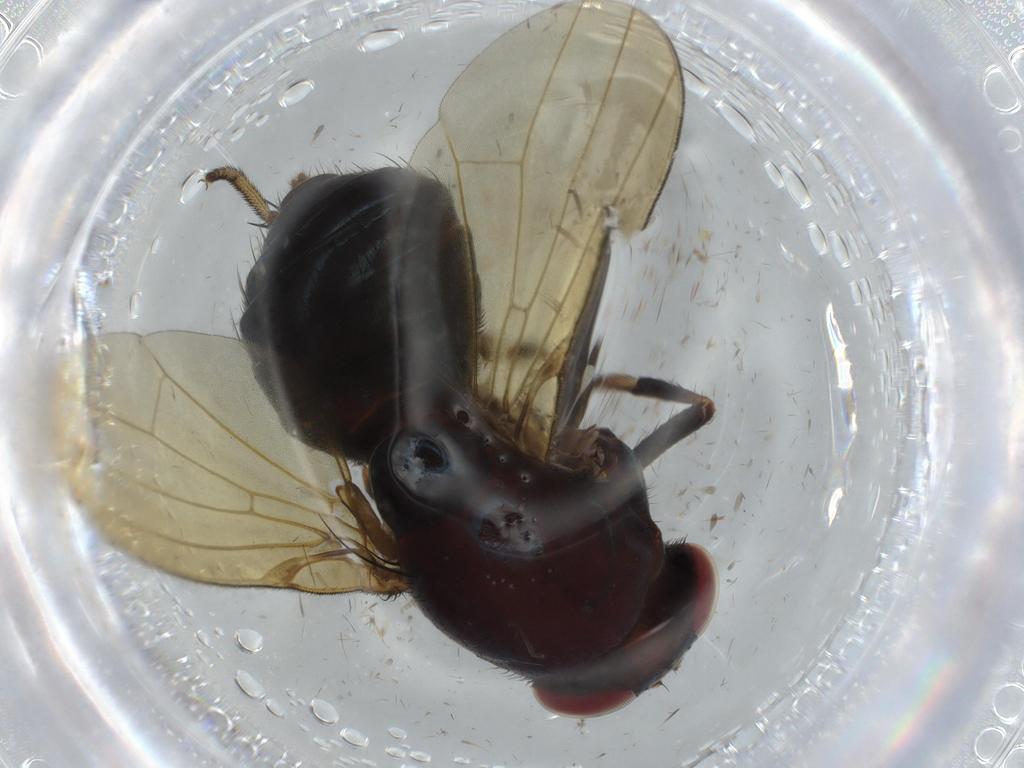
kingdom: Animalia
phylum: Arthropoda
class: Insecta
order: Diptera
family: Lauxaniidae
